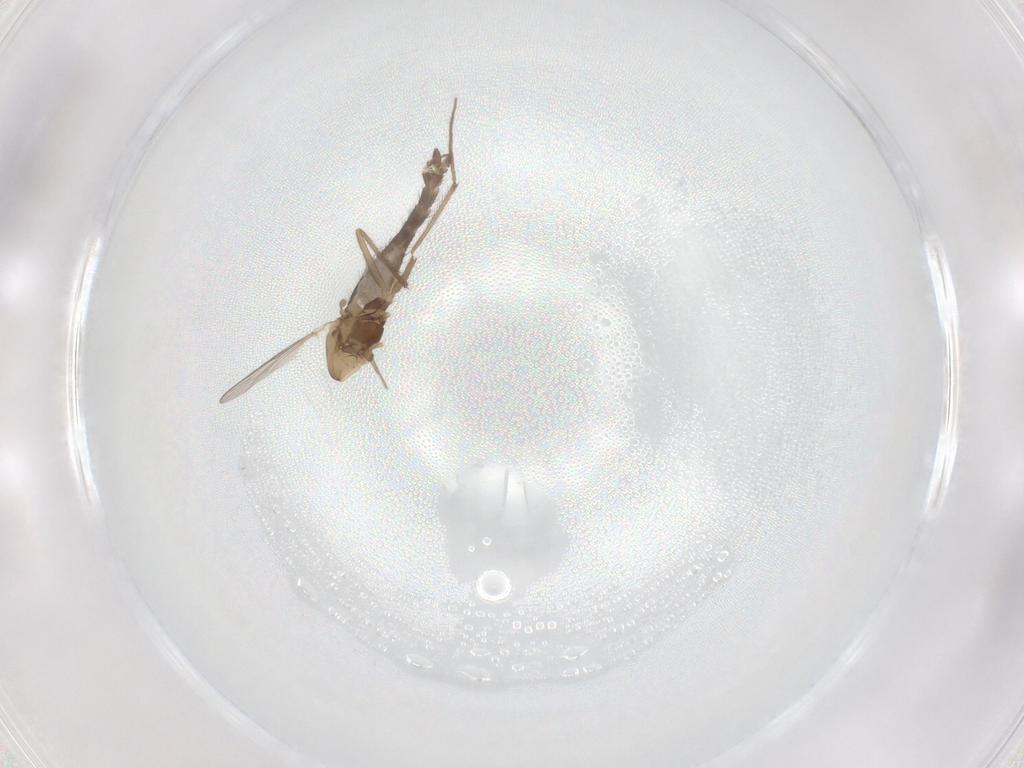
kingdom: Animalia
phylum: Arthropoda
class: Insecta
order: Diptera
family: Chironomidae
